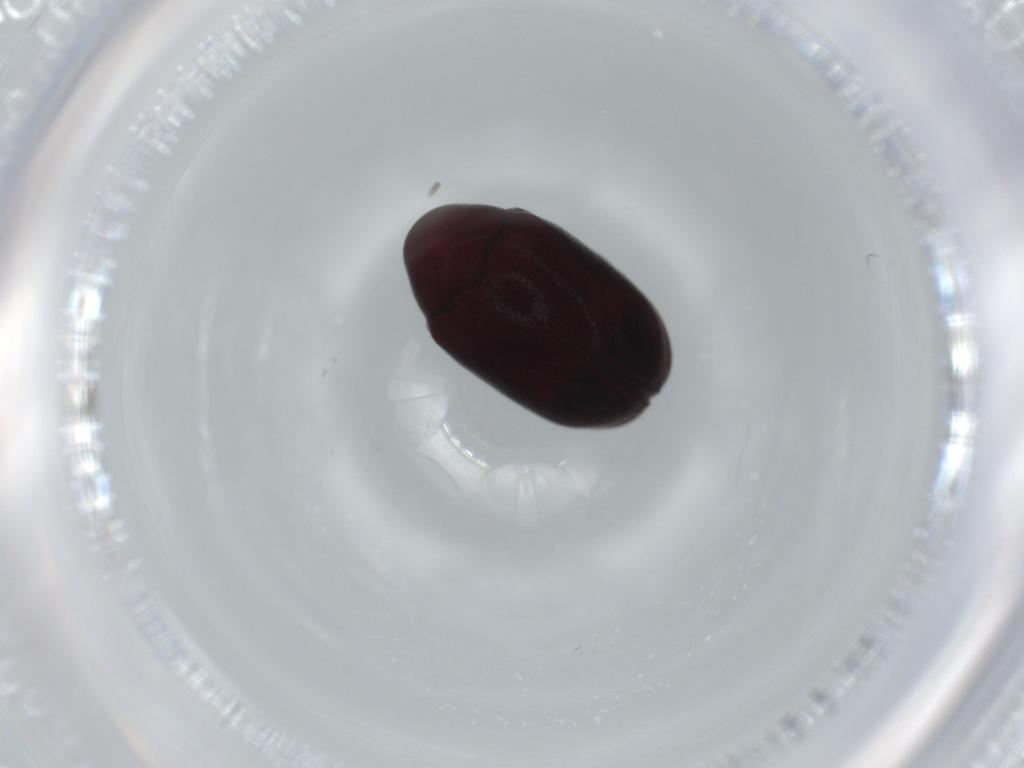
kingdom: Animalia
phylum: Arthropoda
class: Insecta
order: Coleoptera
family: Ptinidae
